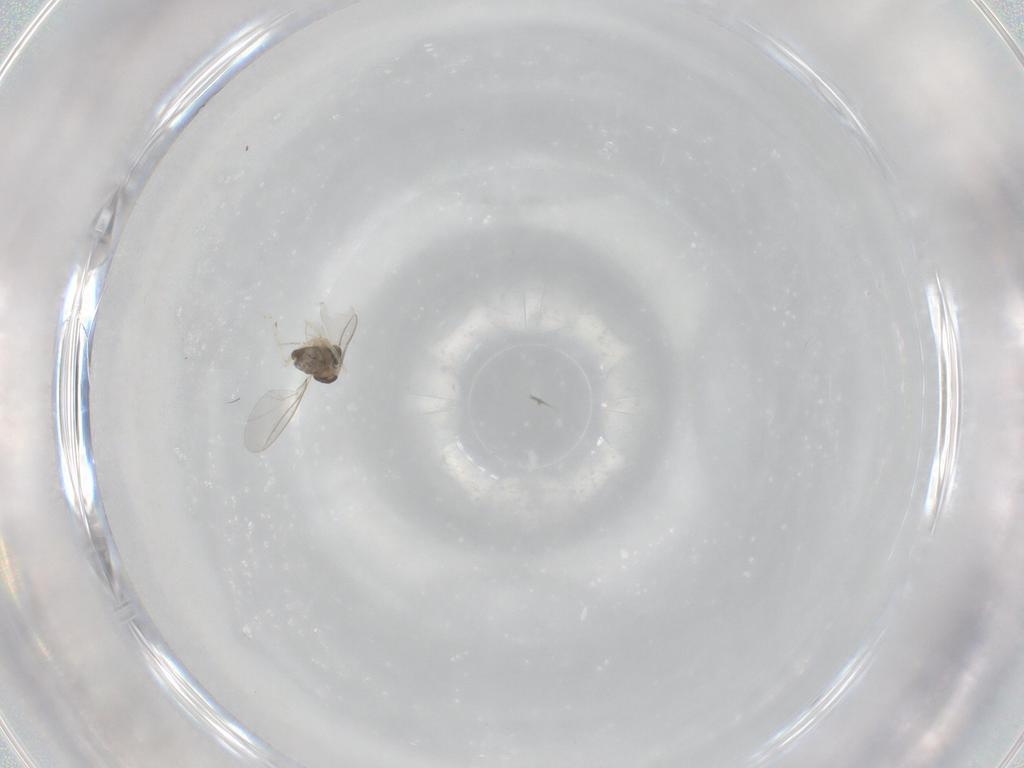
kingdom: Animalia
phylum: Arthropoda
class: Insecta
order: Diptera
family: Cecidomyiidae
